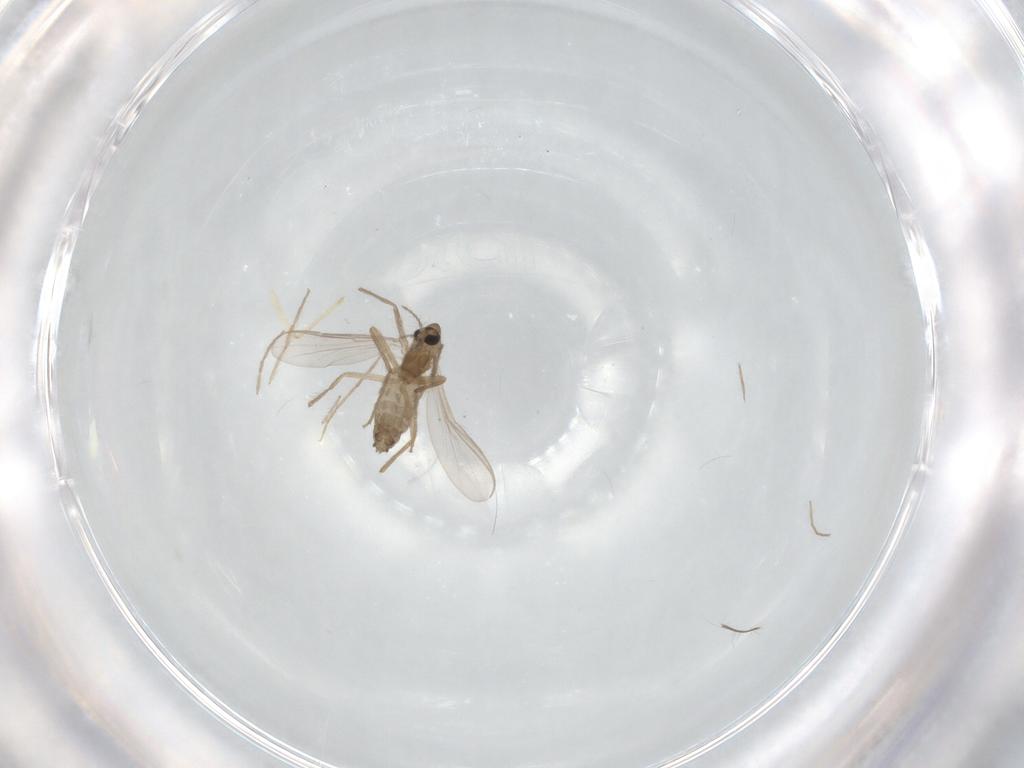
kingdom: Animalia
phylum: Arthropoda
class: Insecta
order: Diptera
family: Chironomidae
